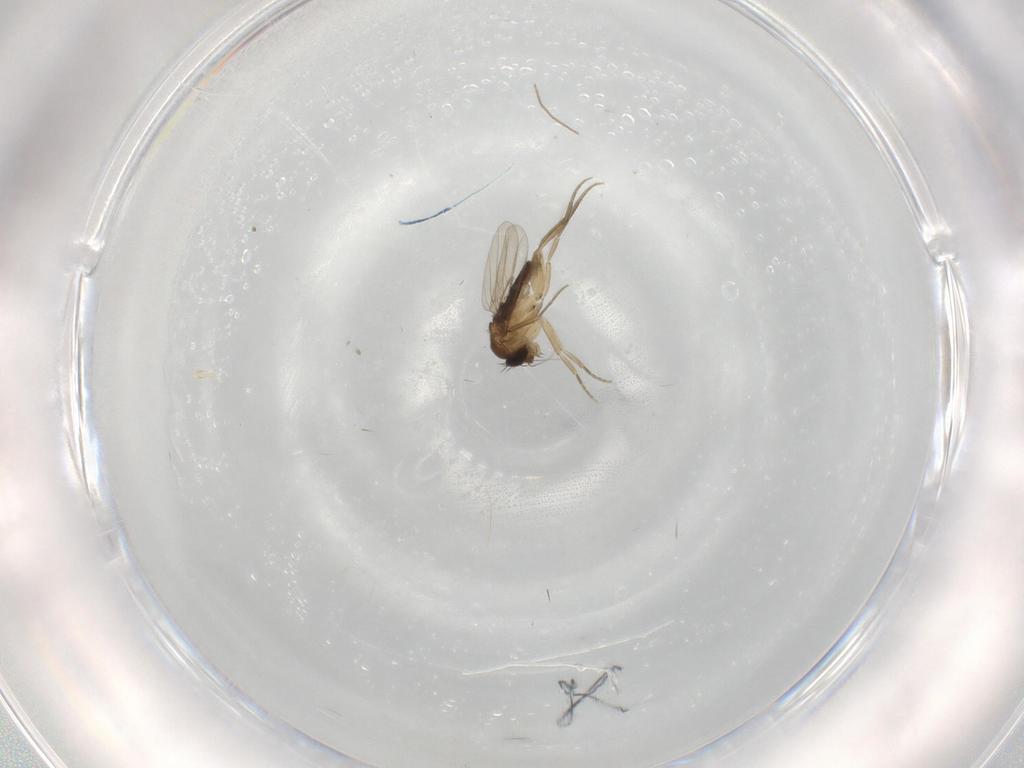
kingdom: Animalia
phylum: Arthropoda
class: Insecta
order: Diptera
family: Phoridae
